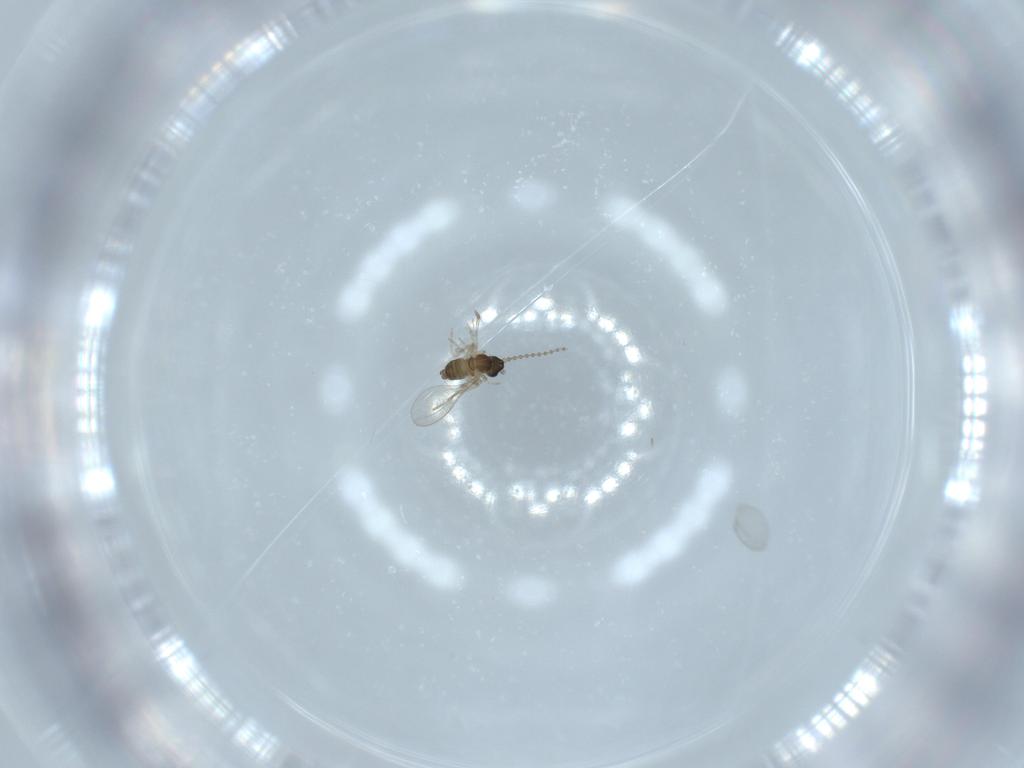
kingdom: Animalia
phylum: Arthropoda
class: Insecta
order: Diptera
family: Cecidomyiidae
